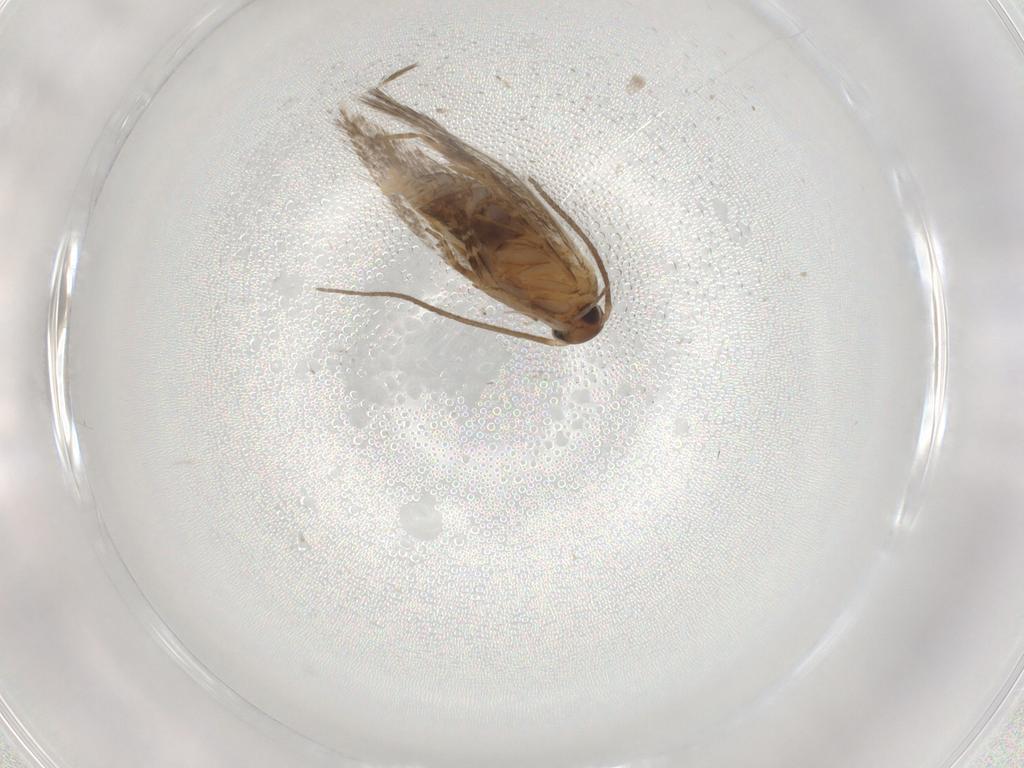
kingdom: Animalia
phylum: Arthropoda
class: Insecta
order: Lepidoptera
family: Elachistidae
